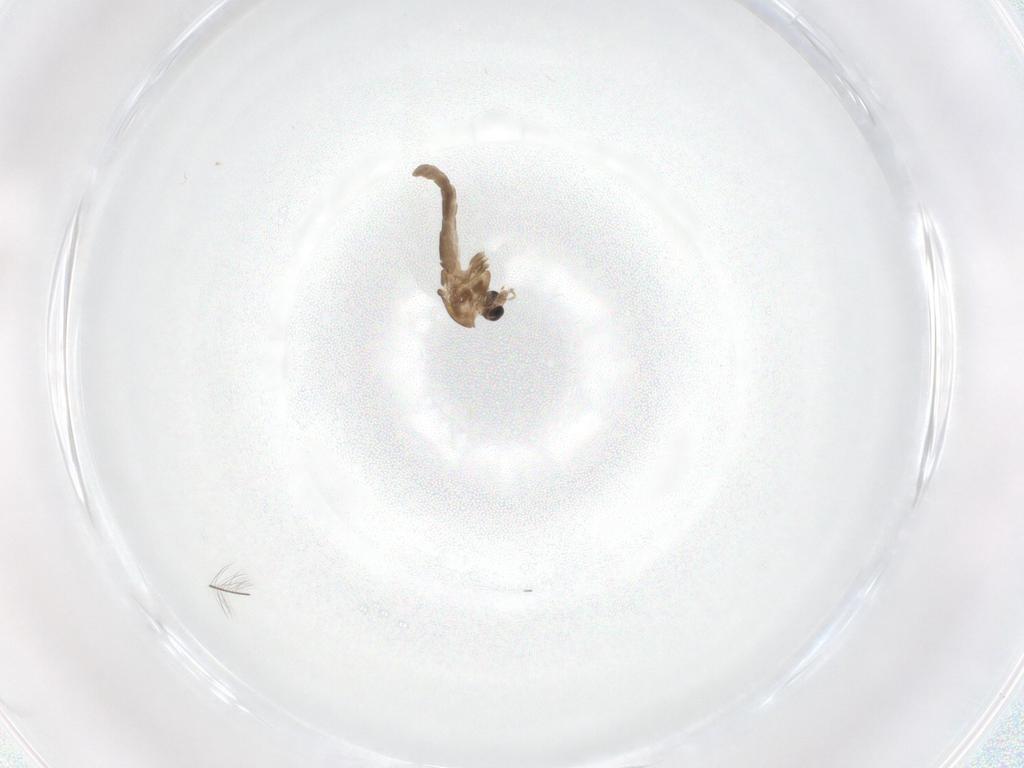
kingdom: Animalia
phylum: Arthropoda
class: Insecta
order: Diptera
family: Chironomidae
